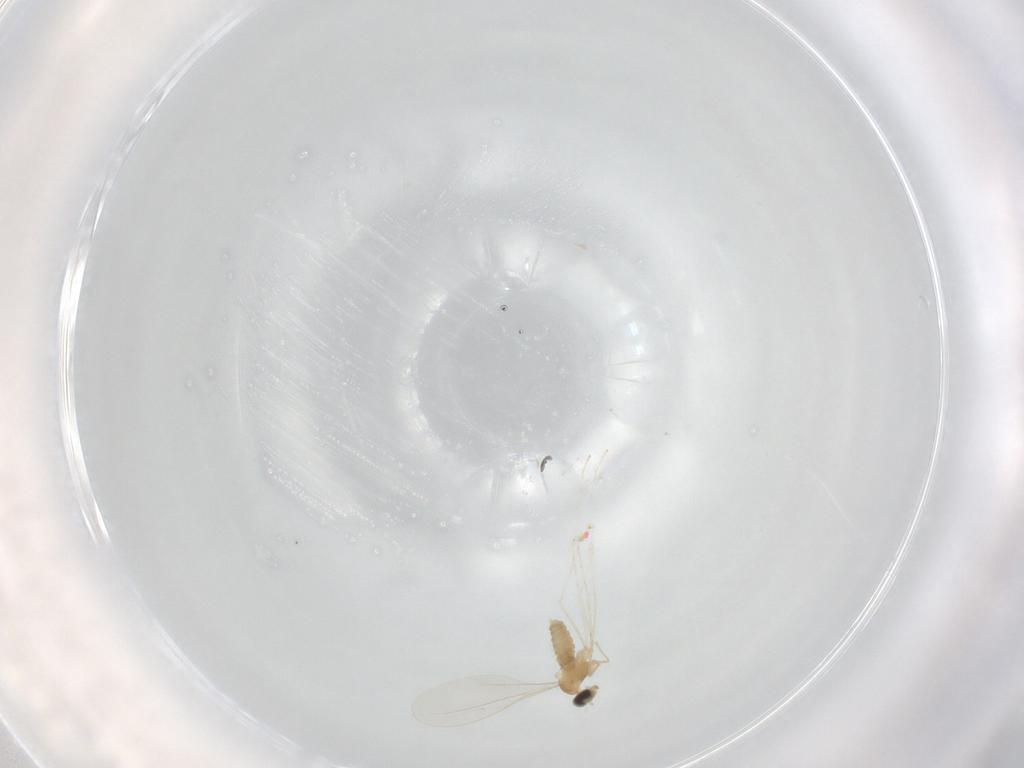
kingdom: Animalia
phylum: Arthropoda
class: Insecta
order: Diptera
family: Cecidomyiidae
